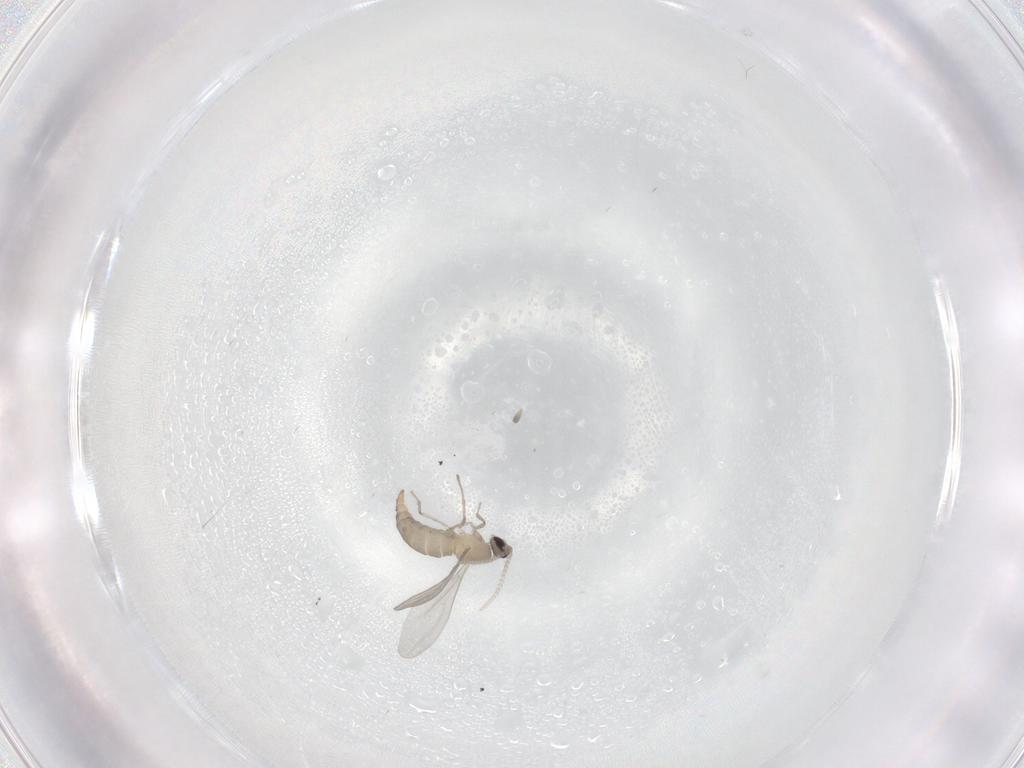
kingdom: Animalia
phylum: Arthropoda
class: Insecta
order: Diptera
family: Cecidomyiidae
